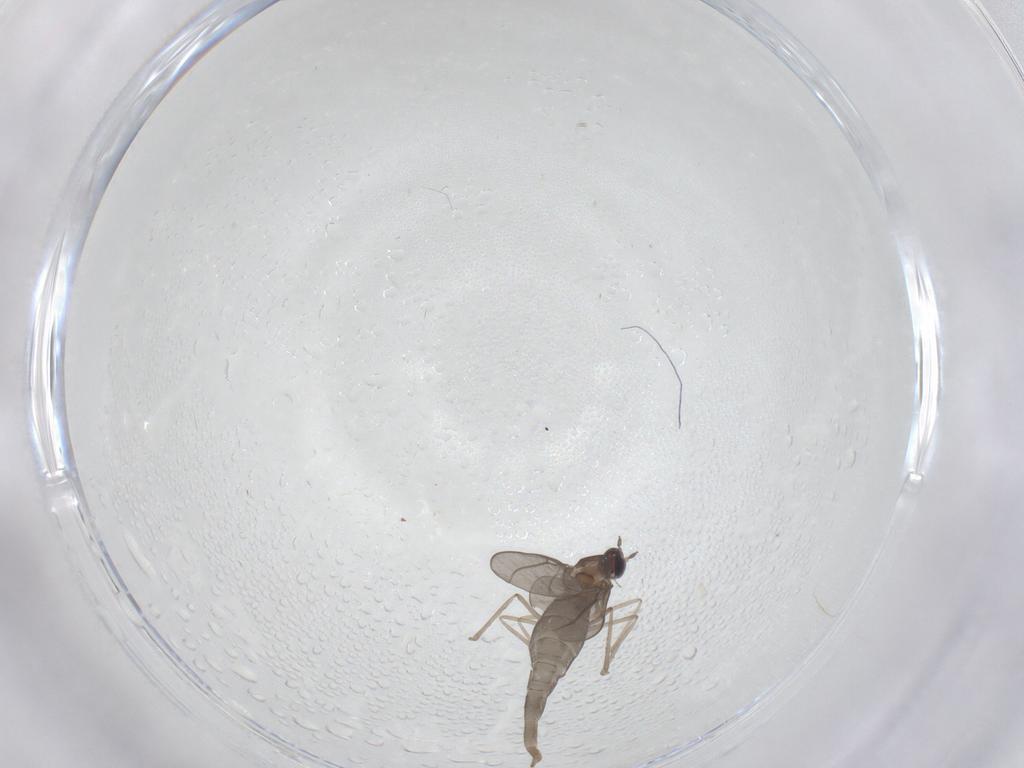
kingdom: Animalia
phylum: Arthropoda
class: Insecta
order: Diptera
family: Cecidomyiidae
